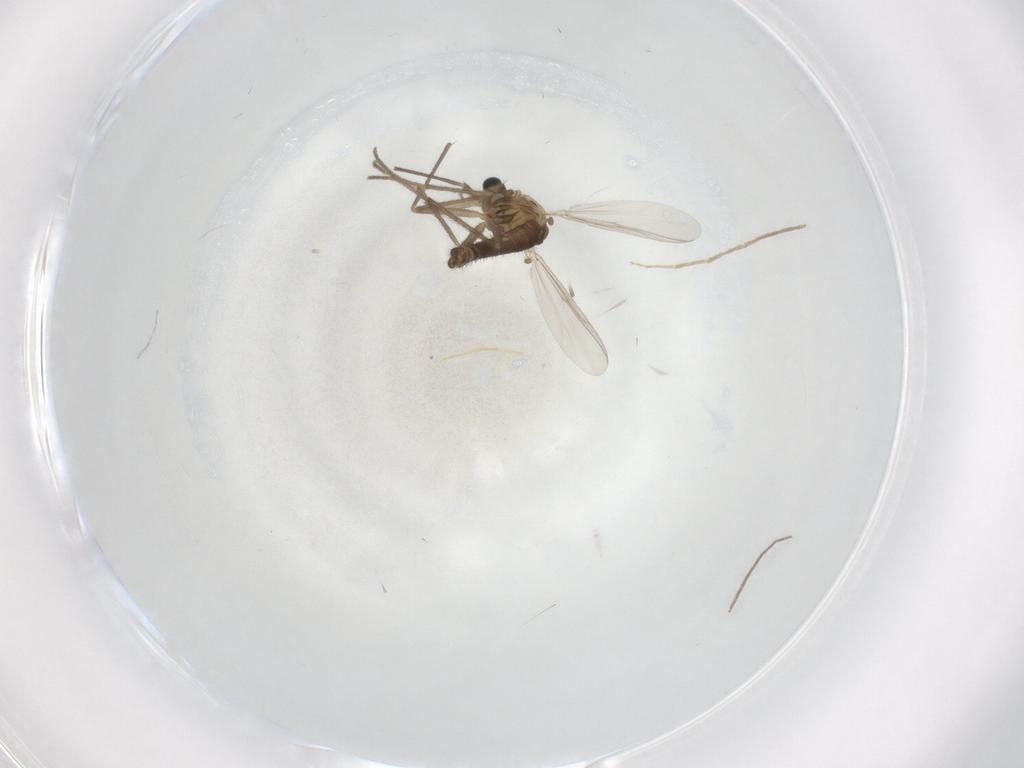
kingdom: Animalia
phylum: Arthropoda
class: Insecta
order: Diptera
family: Chironomidae
